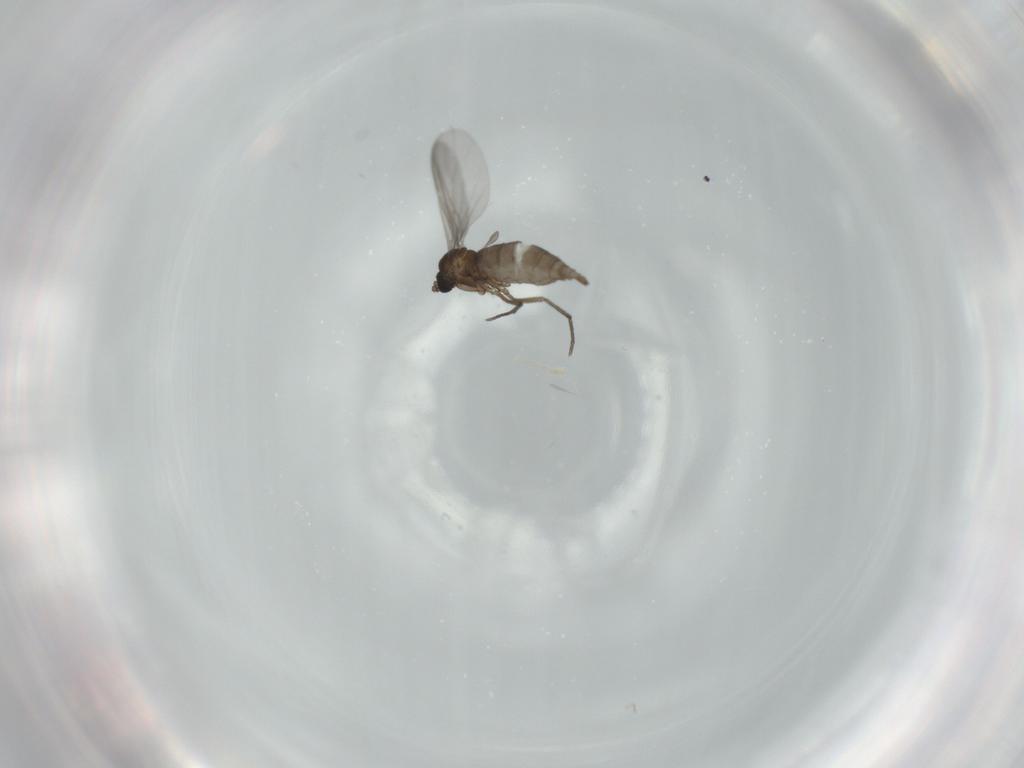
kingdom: Animalia
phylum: Arthropoda
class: Insecta
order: Diptera
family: Sciaridae
